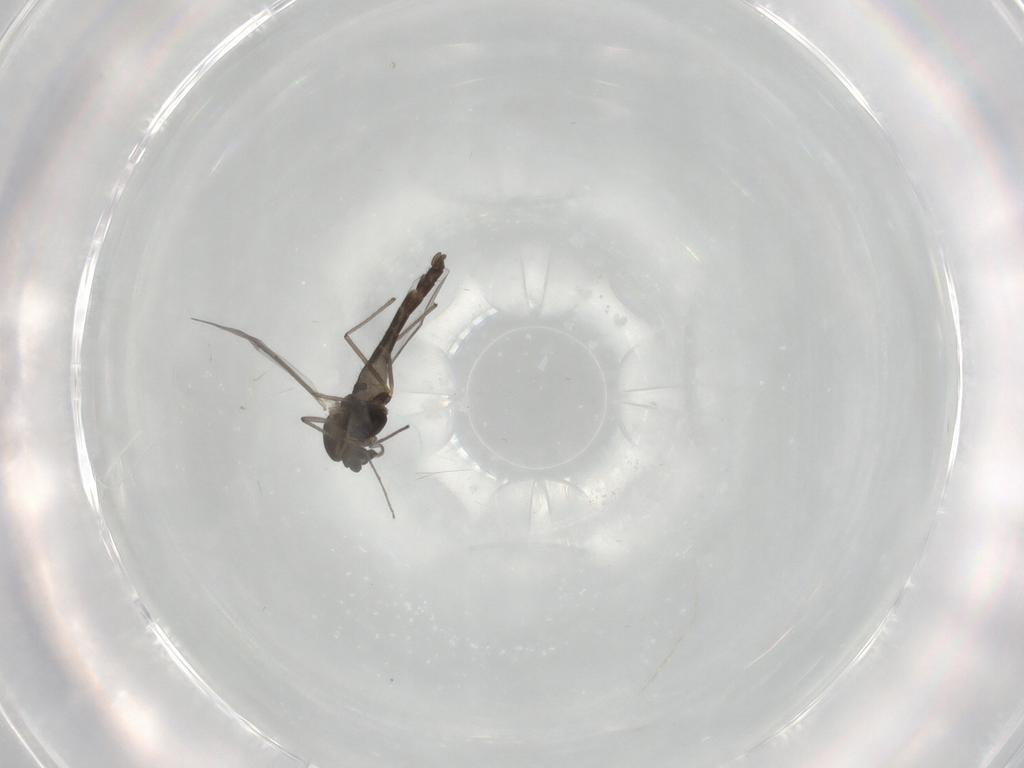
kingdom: Animalia
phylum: Arthropoda
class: Insecta
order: Diptera
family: Chironomidae
